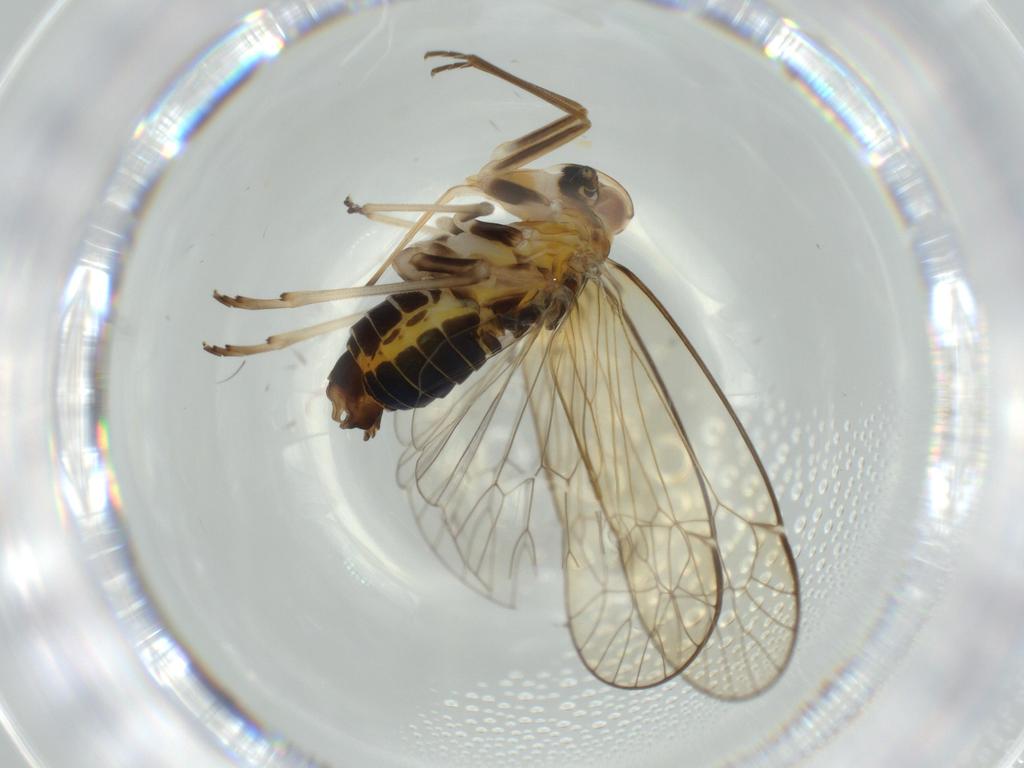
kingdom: Animalia
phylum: Arthropoda
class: Insecta
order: Hemiptera
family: Kinnaridae
